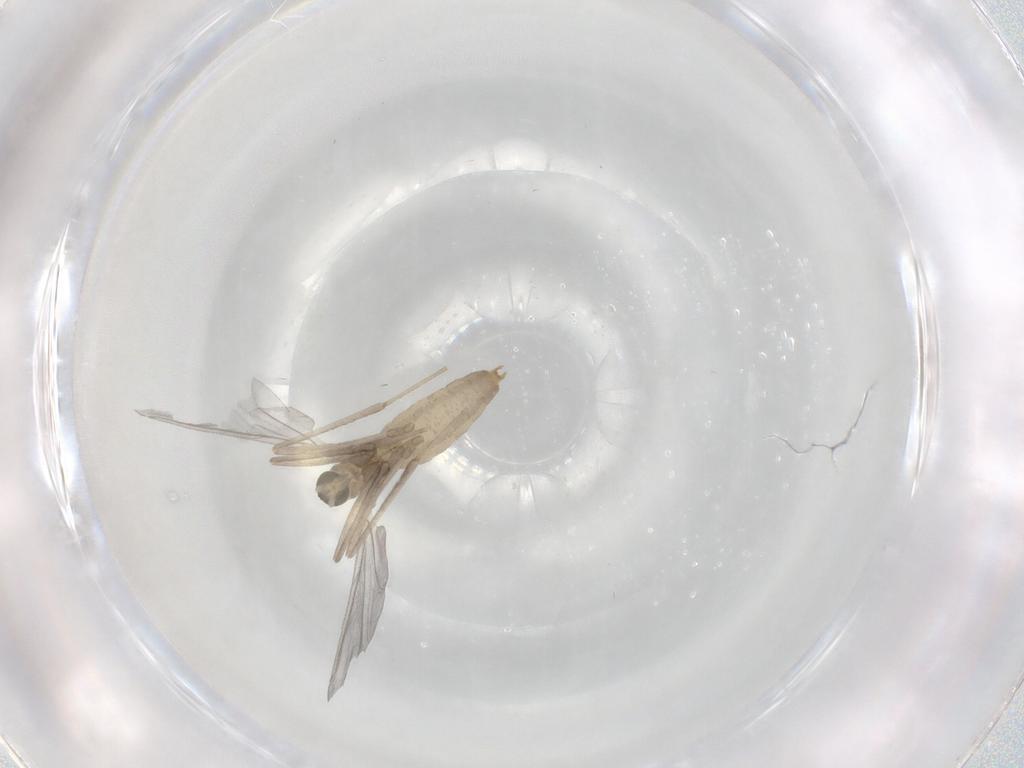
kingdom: Animalia
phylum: Arthropoda
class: Insecta
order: Diptera
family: Cecidomyiidae
